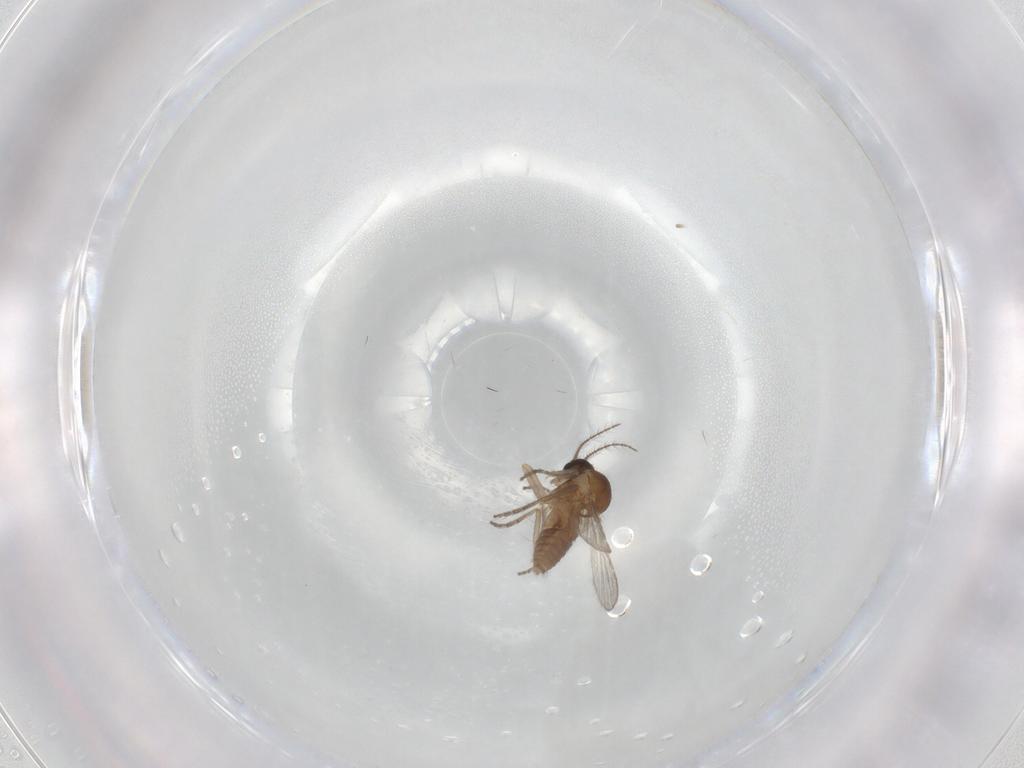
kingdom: Animalia
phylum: Arthropoda
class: Insecta
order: Diptera
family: Ceratopogonidae
